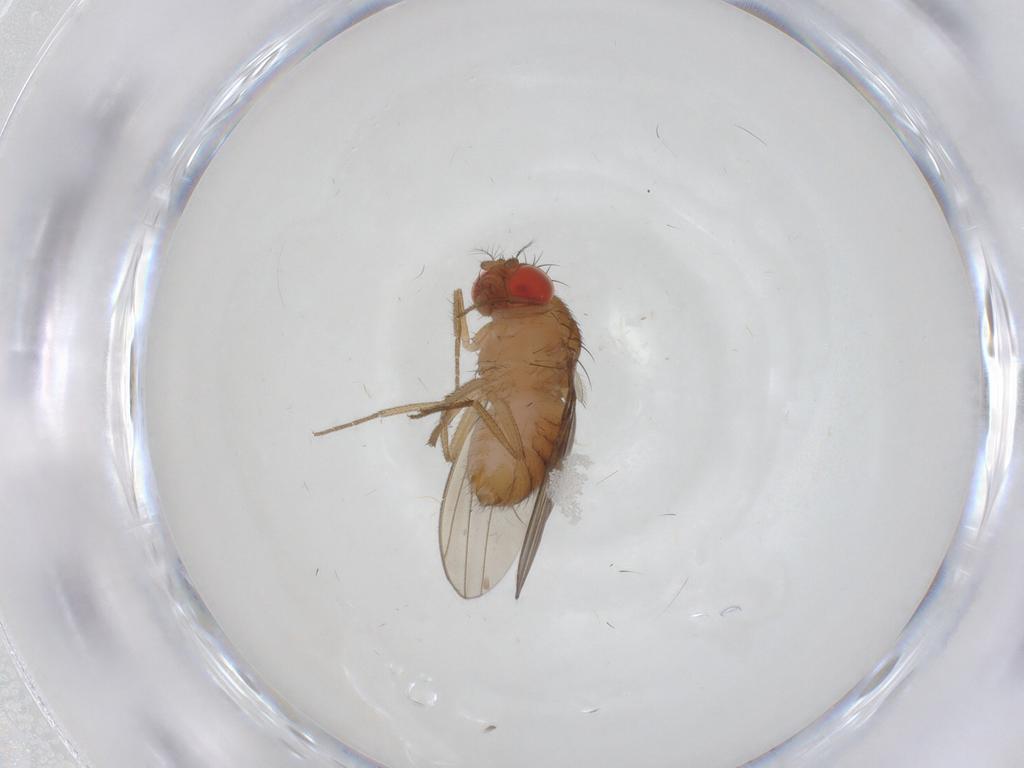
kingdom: Animalia
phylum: Arthropoda
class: Insecta
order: Diptera
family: Drosophilidae
